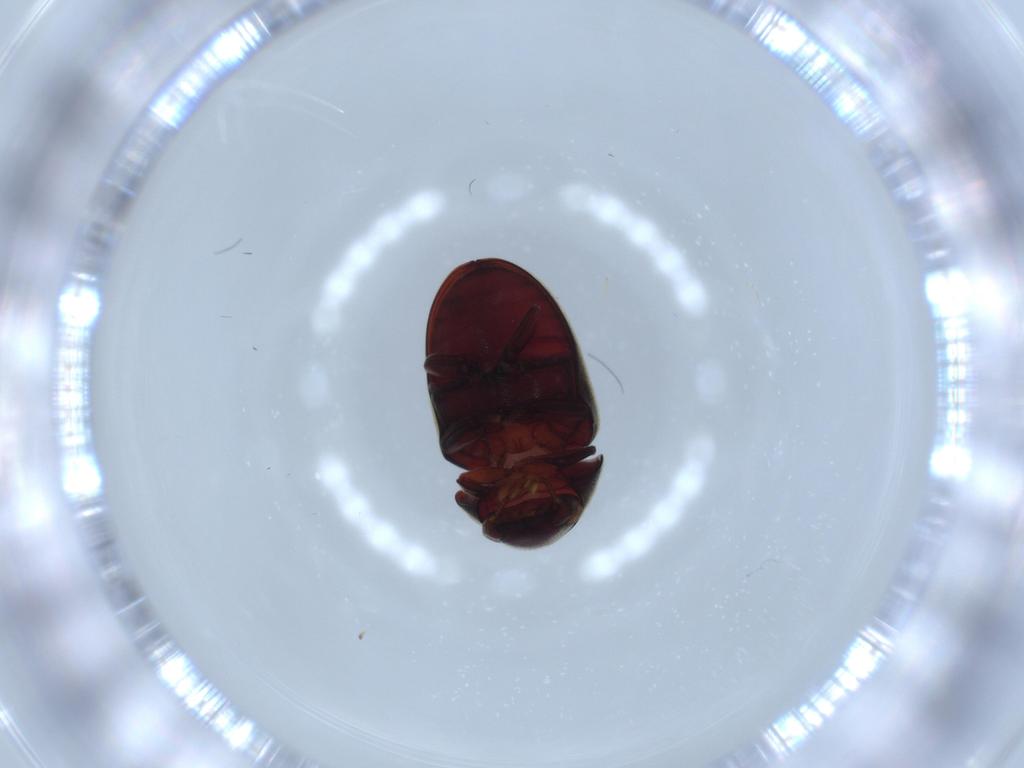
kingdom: Animalia
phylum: Arthropoda
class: Insecta
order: Coleoptera
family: Ptinidae
